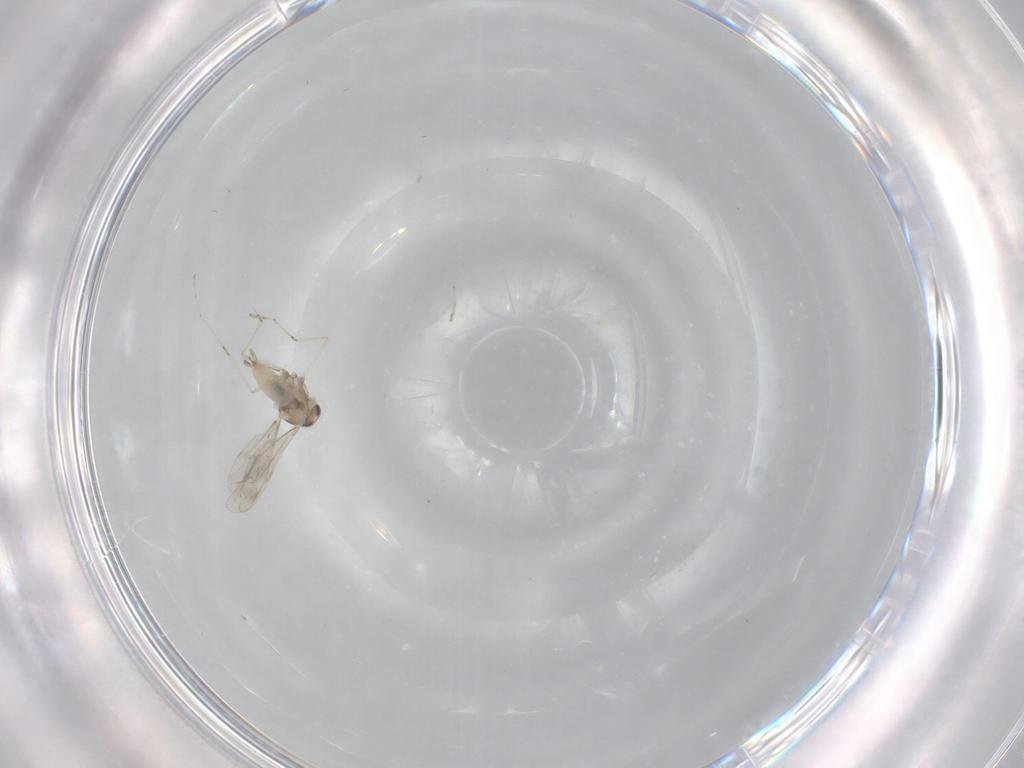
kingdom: Animalia
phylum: Arthropoda
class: Insecta
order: Diptera
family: Cecidomyiidae
